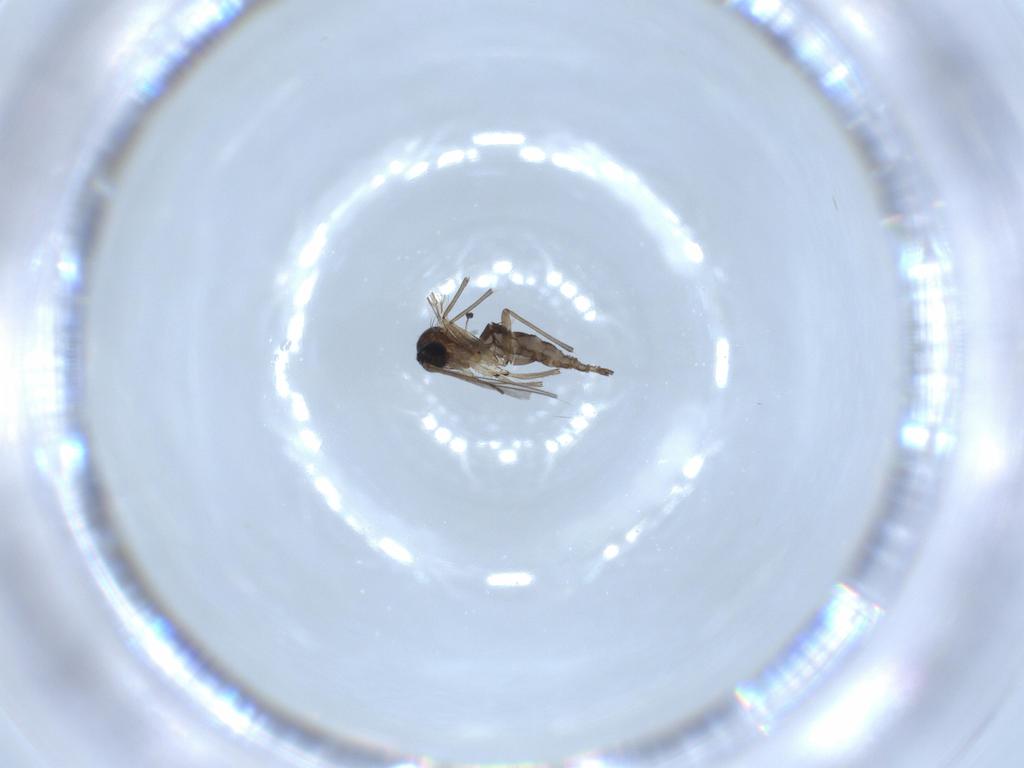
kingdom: Animalia
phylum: Arthropoda
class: Insecta
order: Diptera
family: Sciaridae
